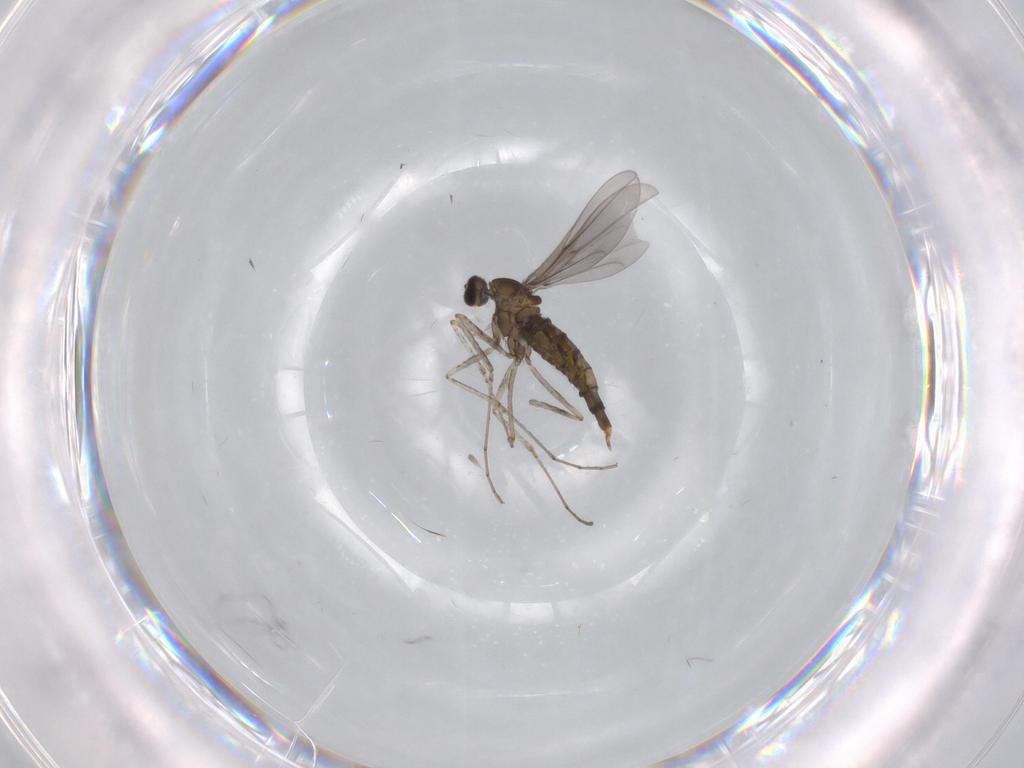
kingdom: Animalia
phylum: Arthropoda
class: Insecta
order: Diptera
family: Cecidomyiidae
